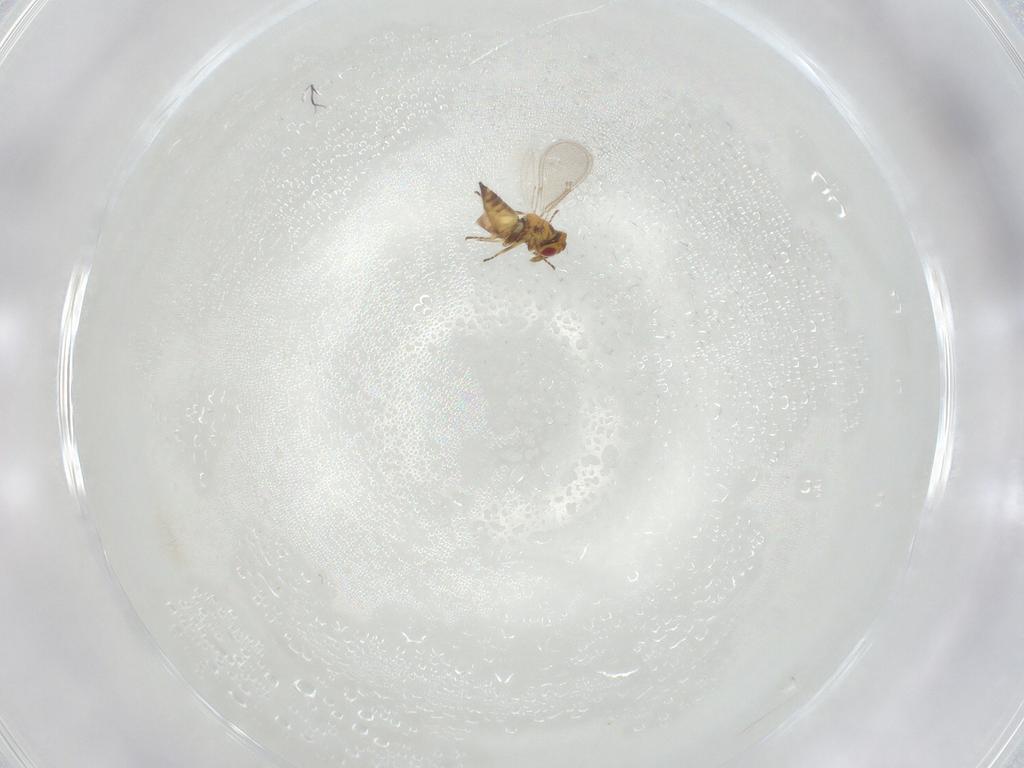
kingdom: Animalia
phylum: Arthropoda
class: Insecta
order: Hymenoptera
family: Eulophidae
